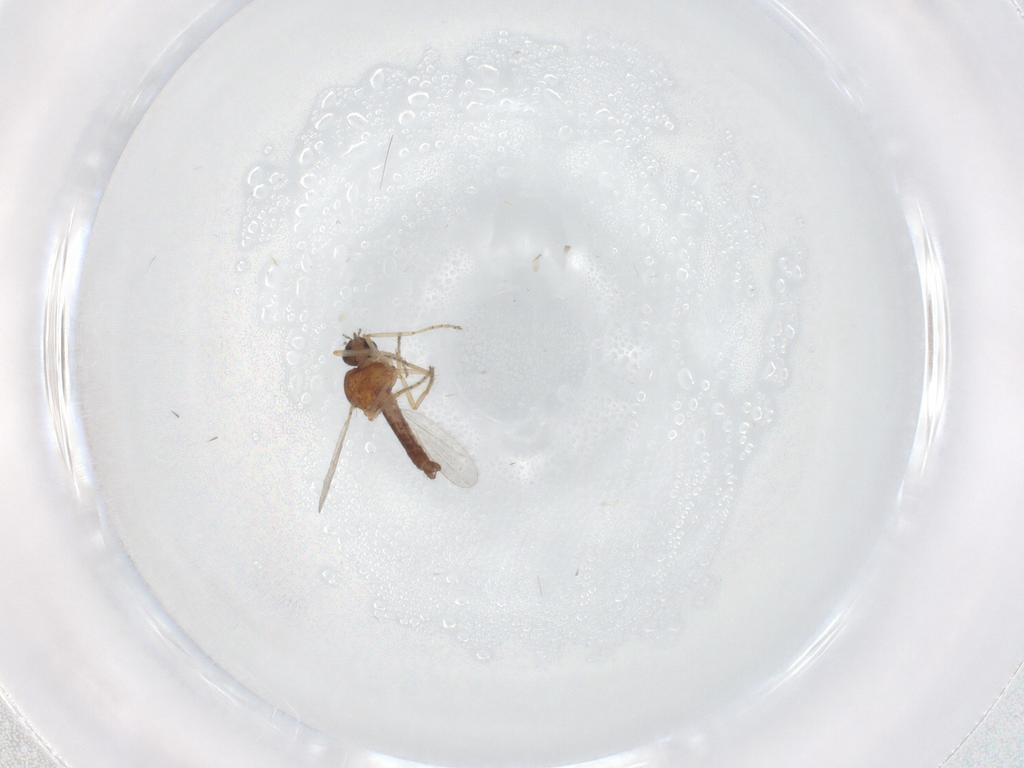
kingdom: Animalia
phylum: Arthropoda
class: Insecta
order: Diptera
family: Ceratopogonidae
